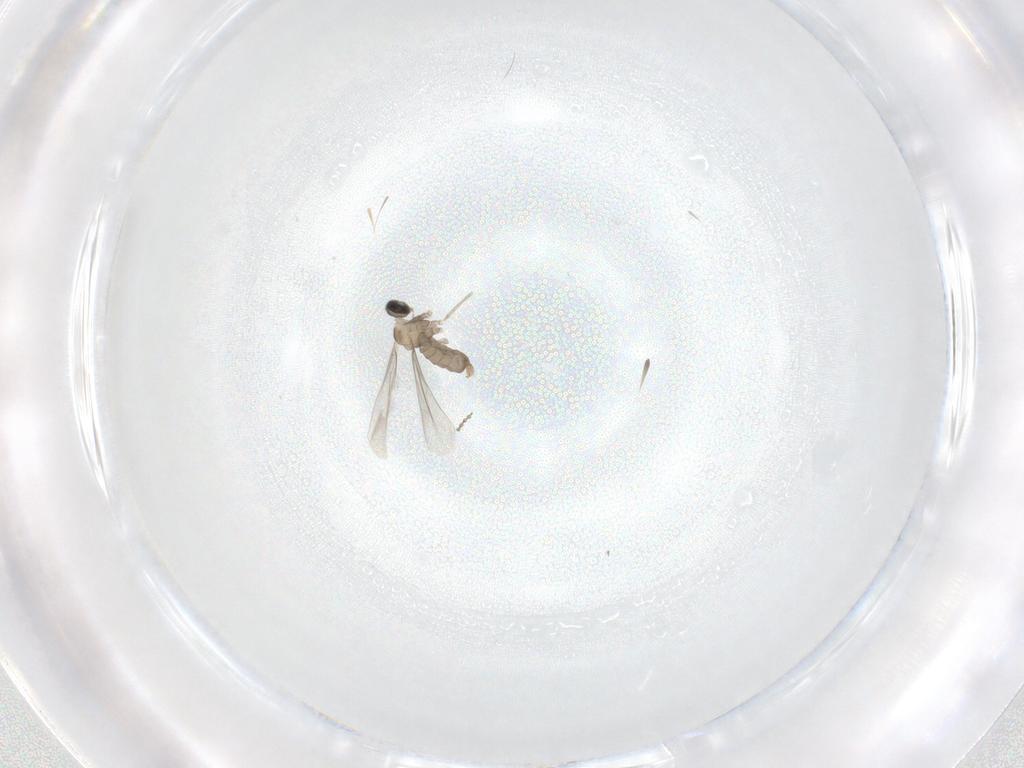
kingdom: Animalia
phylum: Arthropoda
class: Insecta
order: Diptera
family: Cecidomyiidae
